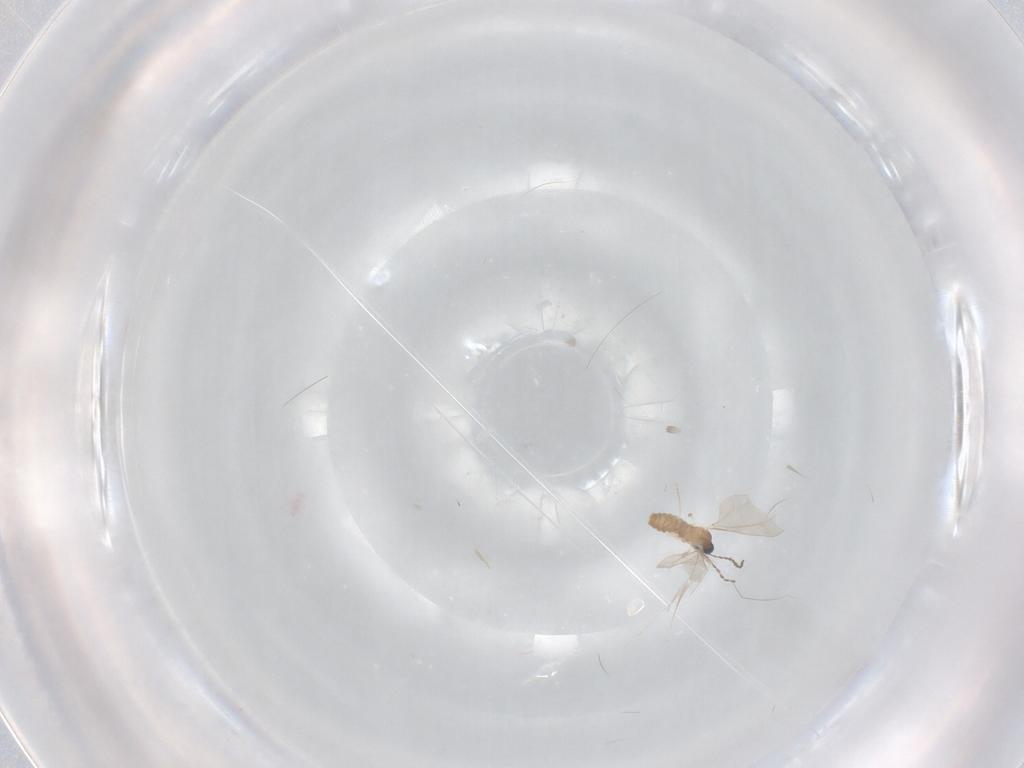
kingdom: Animalia
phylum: Arthropoda
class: Insecta
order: Diptera
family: Cecidomyiidae
